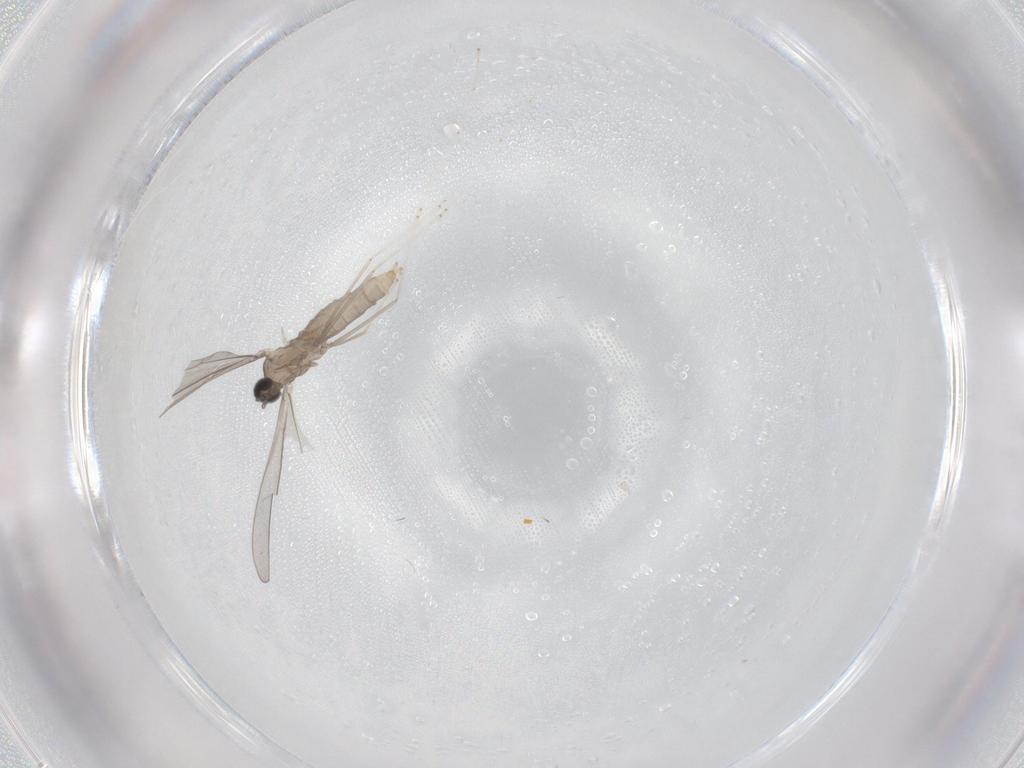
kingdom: Animalia
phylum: Arthropoda
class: Insecta
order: Diptera
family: Cecidomyiidae
